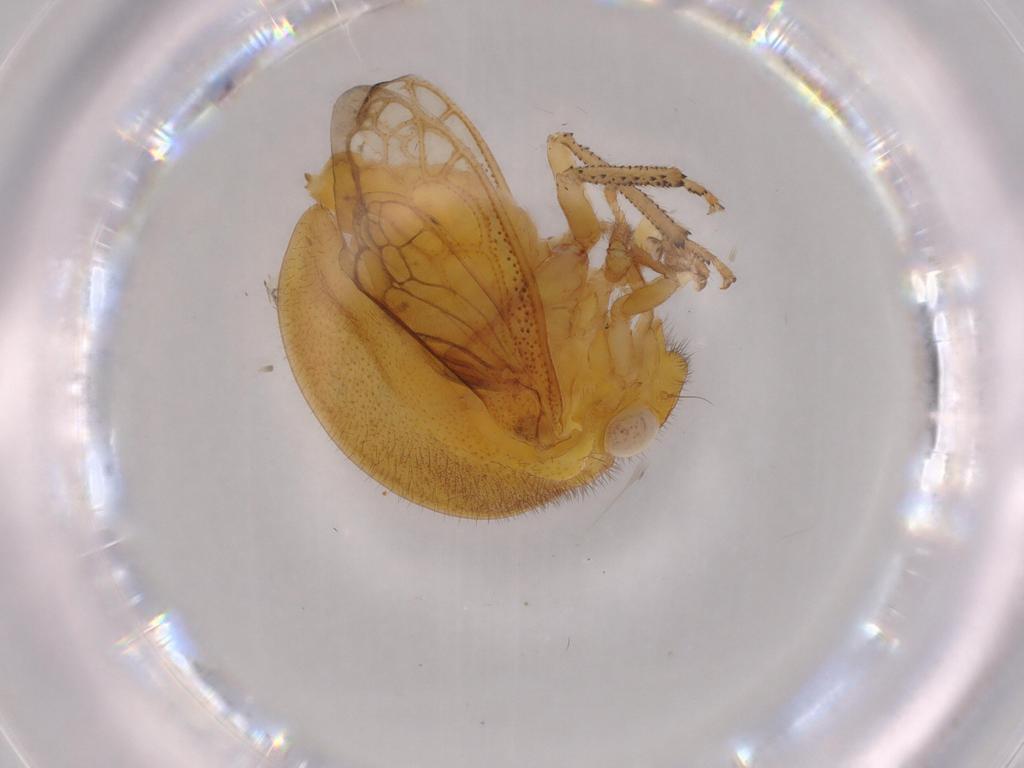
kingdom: Animalia
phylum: Arthropoda
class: Insecta
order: Hemiptera
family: Membracidae
